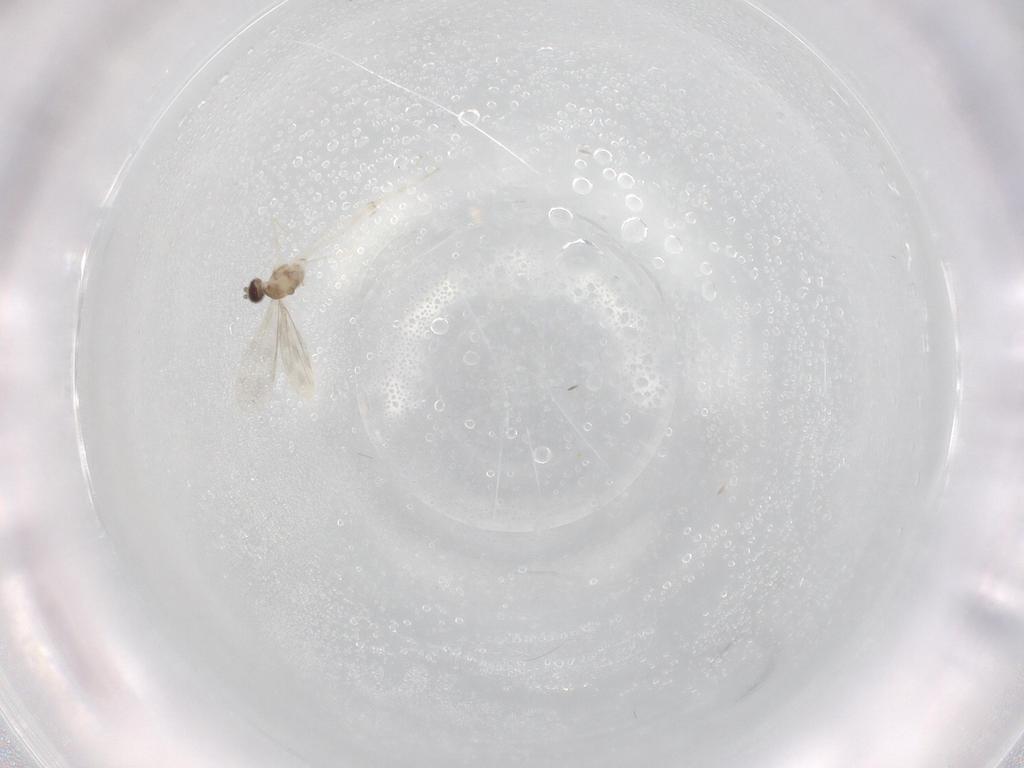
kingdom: Animalia
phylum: Arthropoda
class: Insecta
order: Diptera
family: Cecidomyiidae
